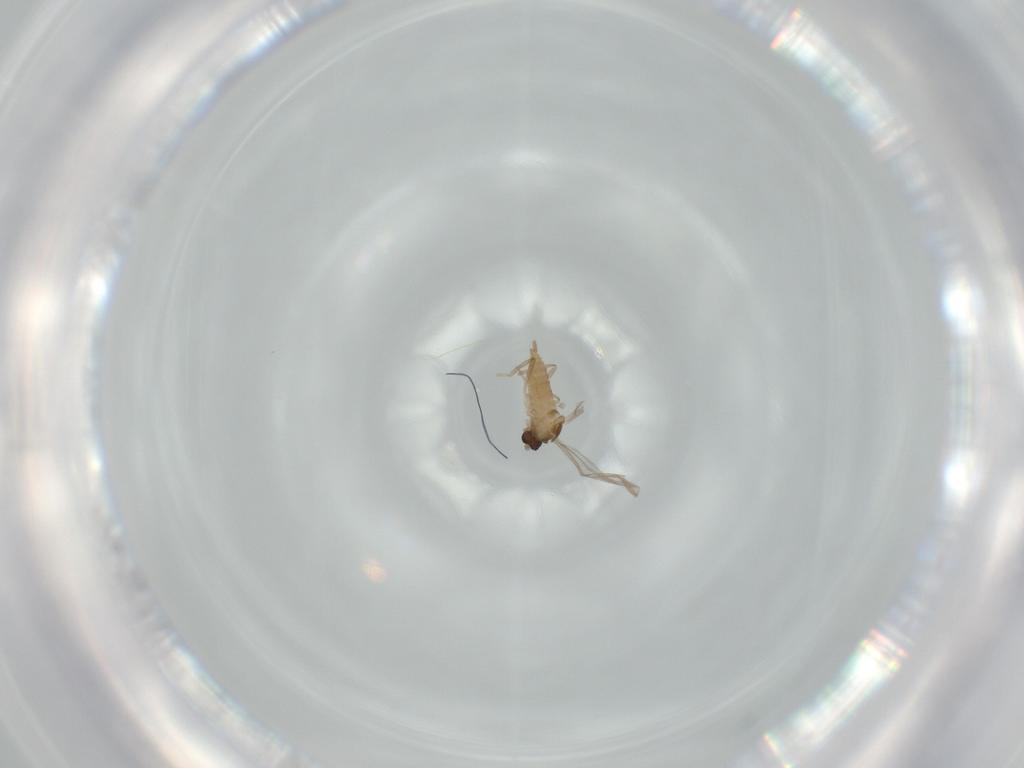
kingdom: Animalia
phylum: Arthropoda
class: Insecta
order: Diptera
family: Cecidomyiidae
